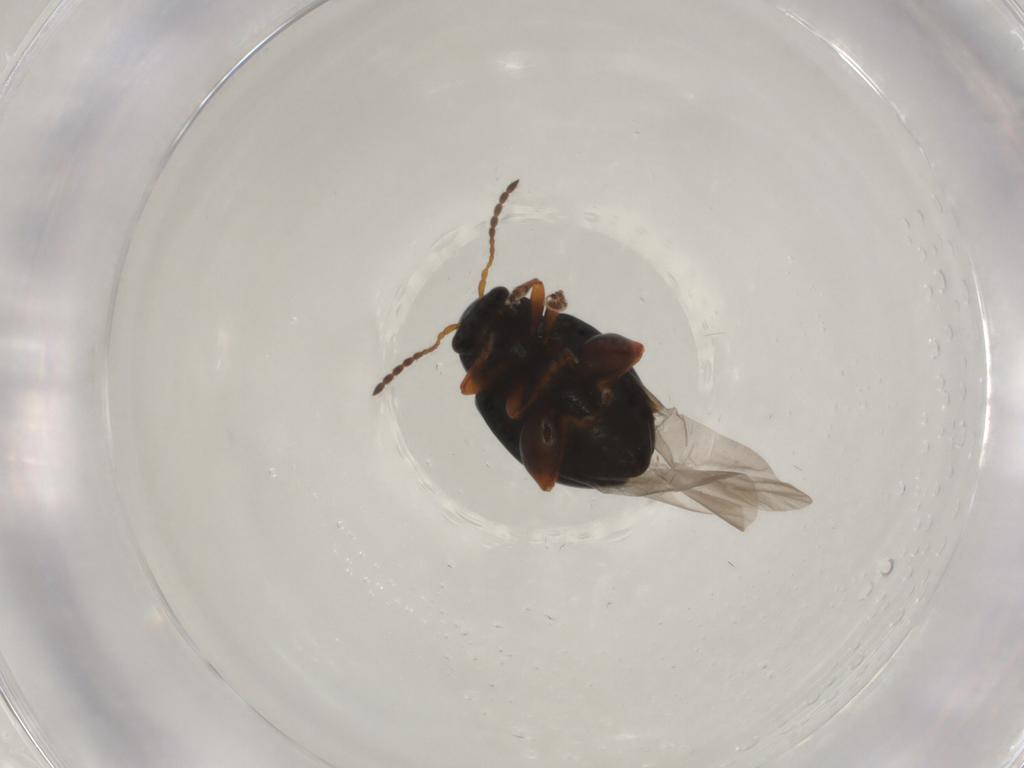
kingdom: Animalia
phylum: Arthropoda
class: Insecta
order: Coleoptera
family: Chrysomelidae
